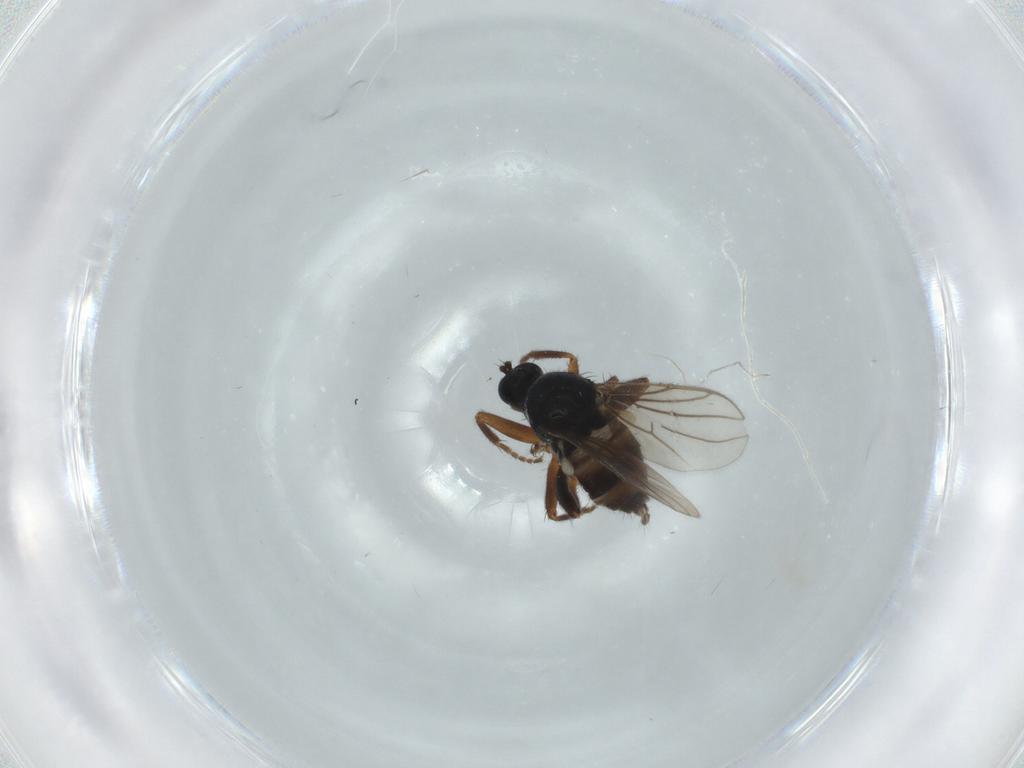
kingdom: Animalia
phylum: Arthropoda
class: Insecta
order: Diptera
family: Hybotidae
